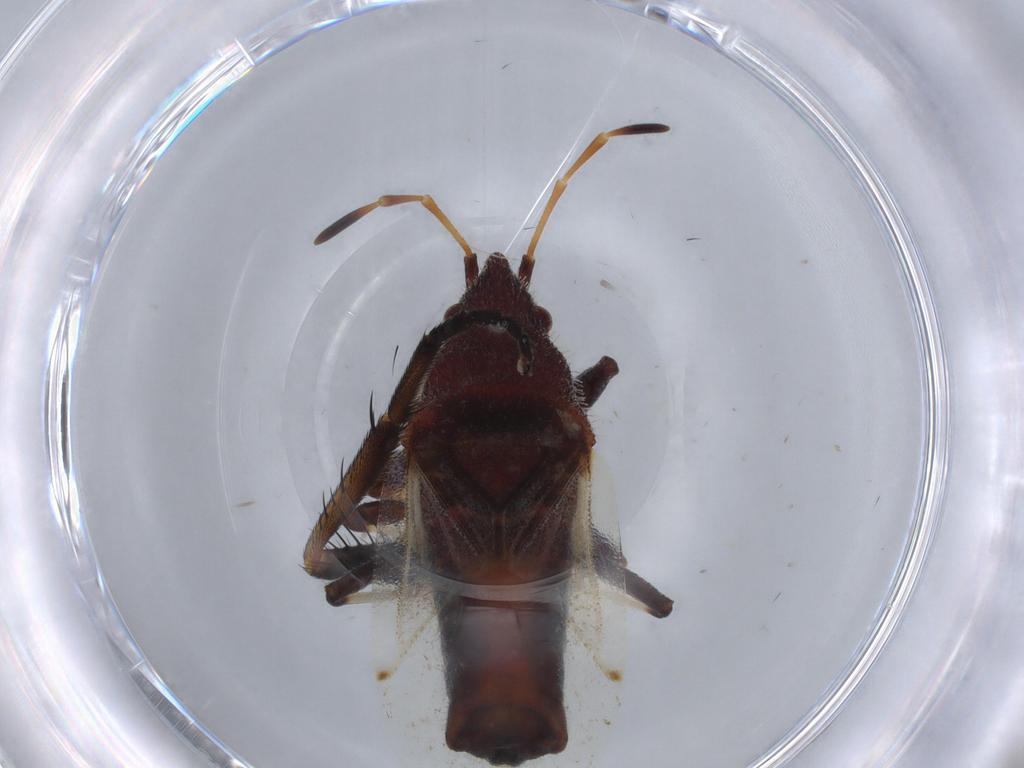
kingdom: Animalia
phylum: Arthropoda
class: Insecta
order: Hemiptera
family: Oxycarenidae
